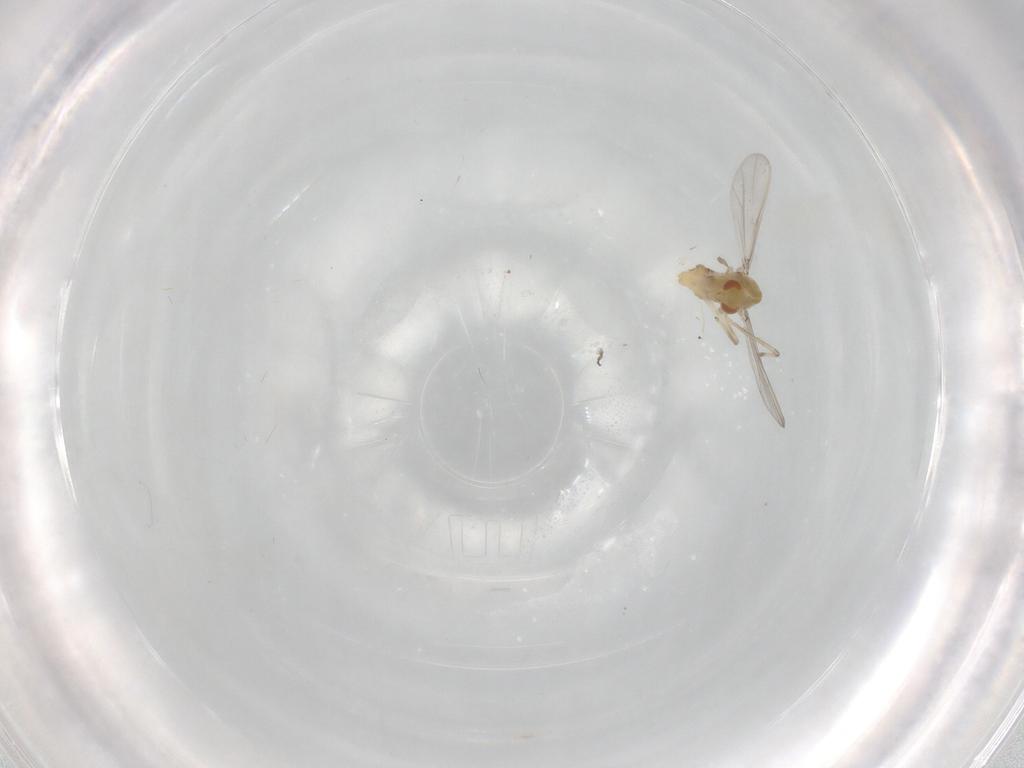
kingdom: Animalia
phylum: Arthropoda
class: Insecta
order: Diptera
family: Chironomidae
